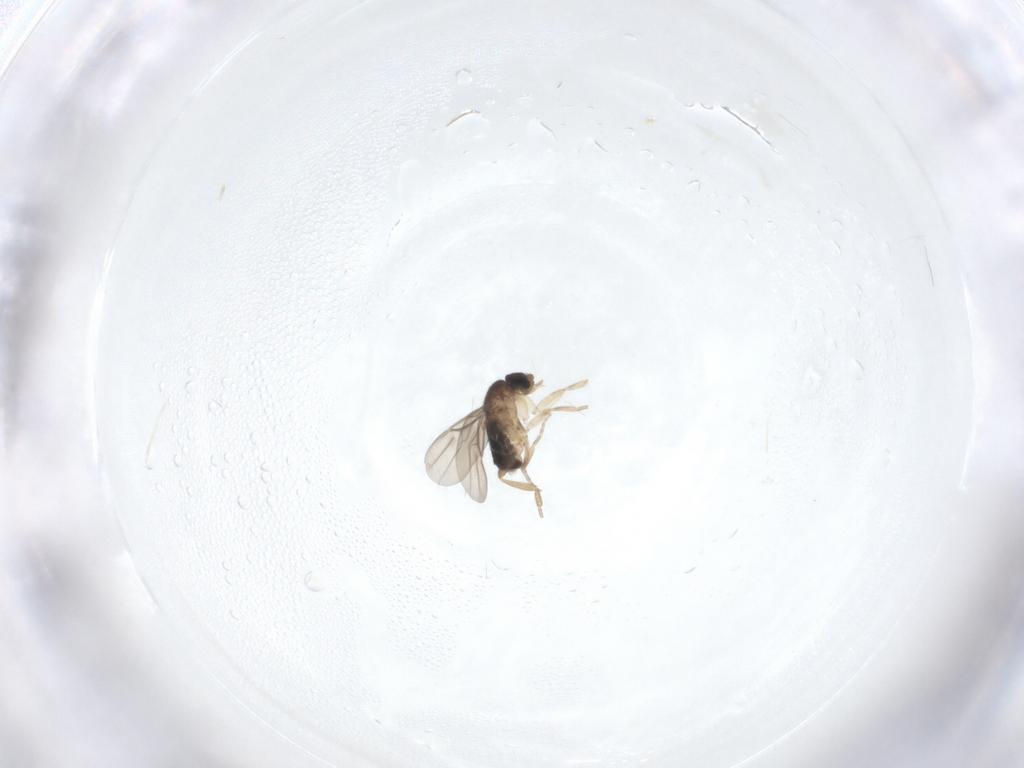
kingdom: Animalia
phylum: Arthropoda
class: Insecta
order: Diptera
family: Phoridae
